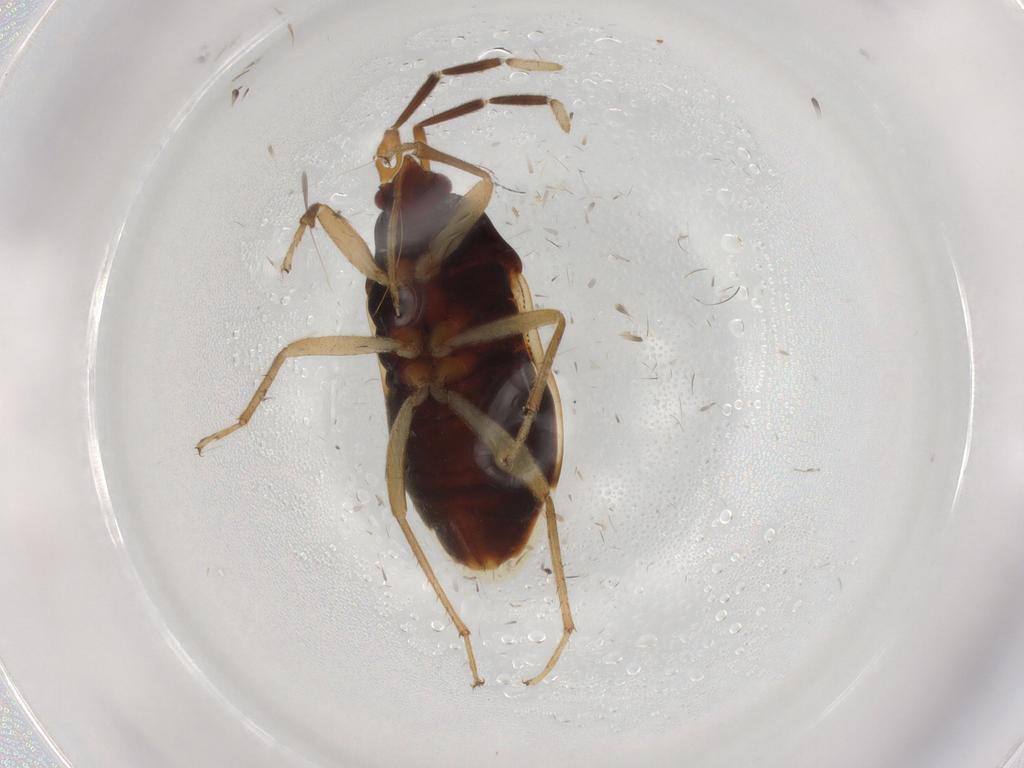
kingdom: Animalia
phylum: Arthropoda
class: Insecta
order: Hemiptera
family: Rhyparochromidae
